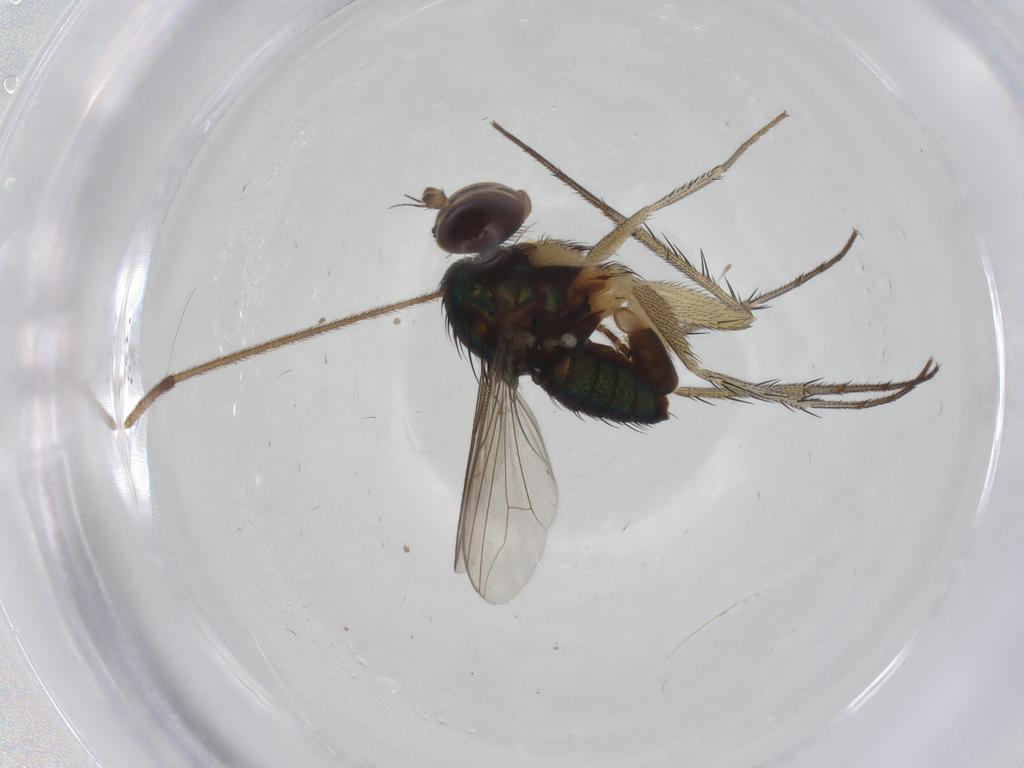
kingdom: Animalia
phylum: Arthropoda
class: Insecta
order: Diptera
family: Dolichopodidae
